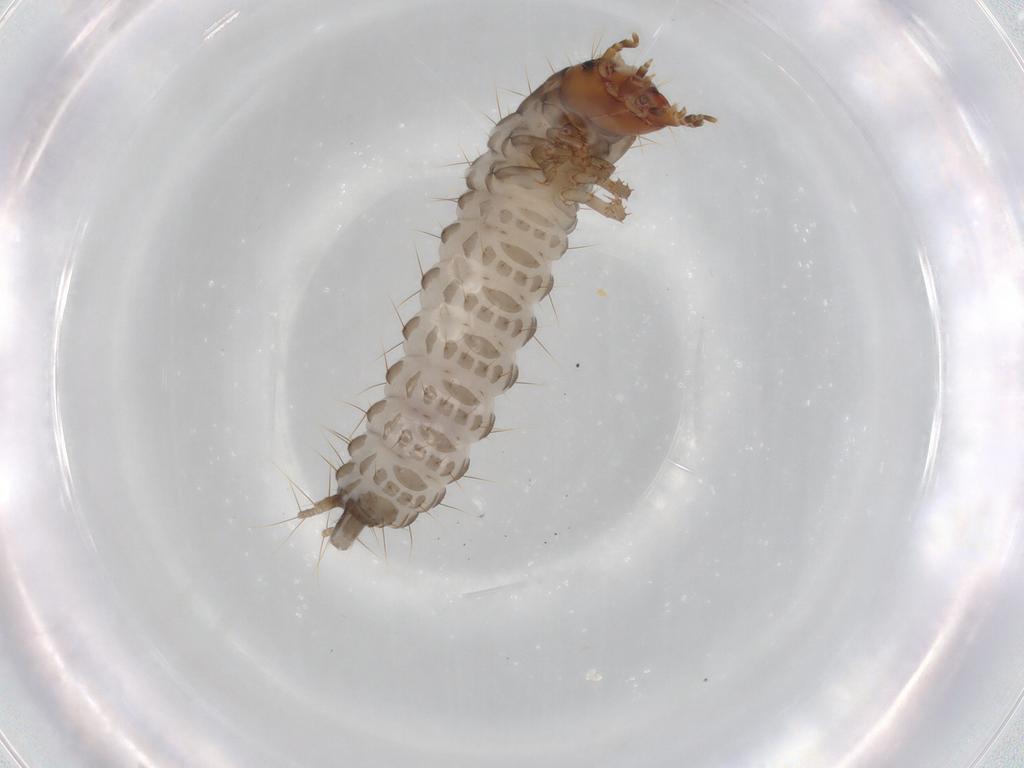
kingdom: Animalia
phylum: Arthropoda
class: Insecta
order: Coleoptera
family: Carabidae
